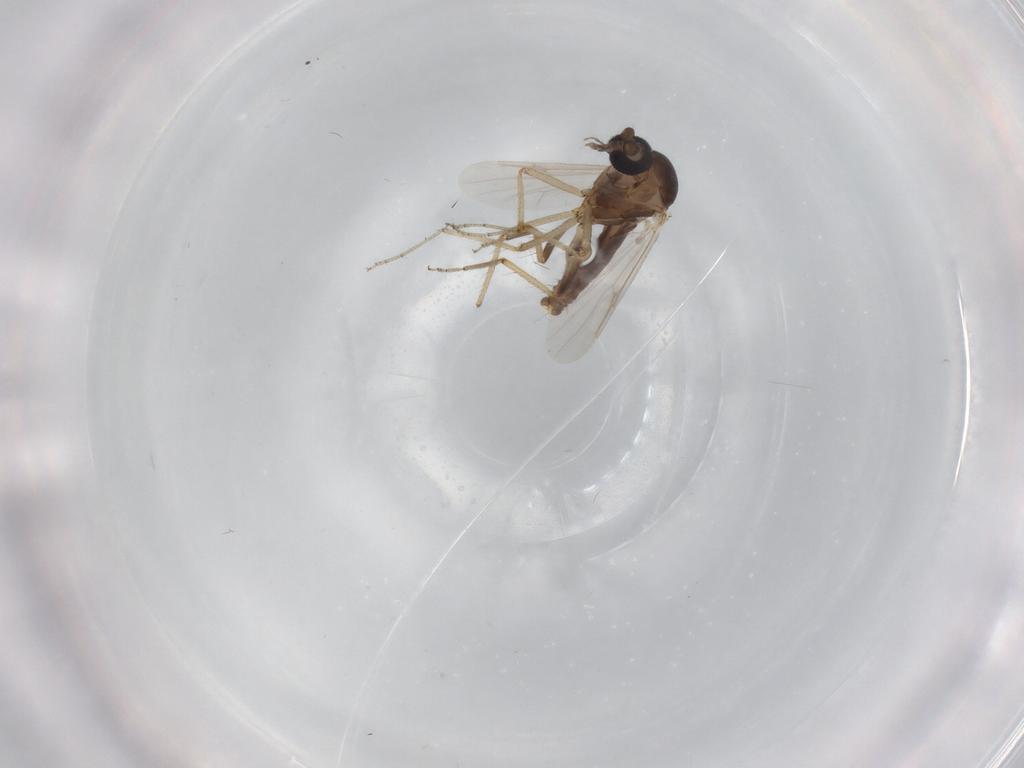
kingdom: Animalia
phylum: Arthropoda
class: Insecta
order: Diptera
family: Ceratopogonidae
